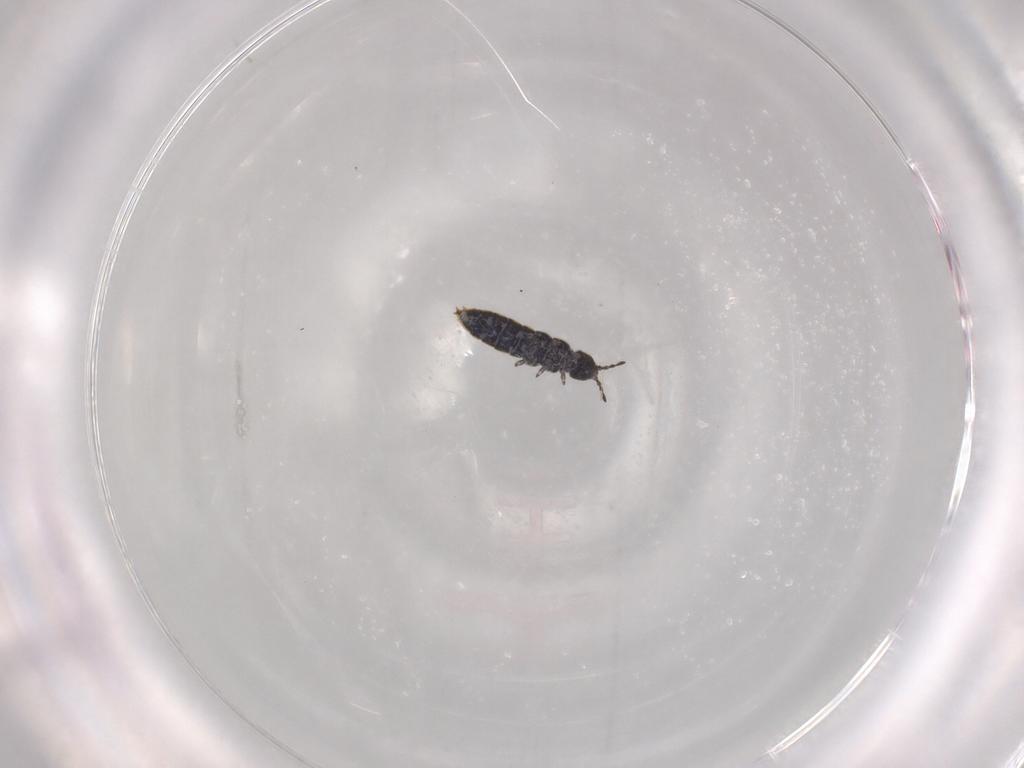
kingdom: Animalia
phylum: Arthropoda
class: Collembola
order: Entomobryomorpha
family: Isotomidae
